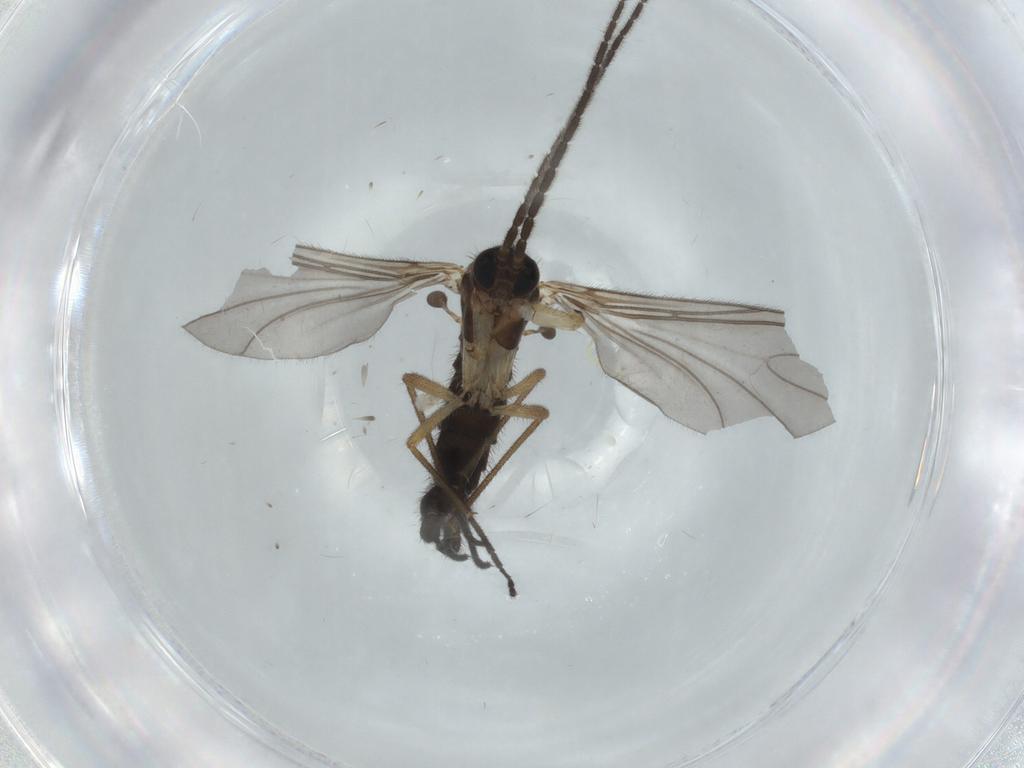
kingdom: Animalia
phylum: Arthropoda
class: Insecta
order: Diptera
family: Sciaridae
